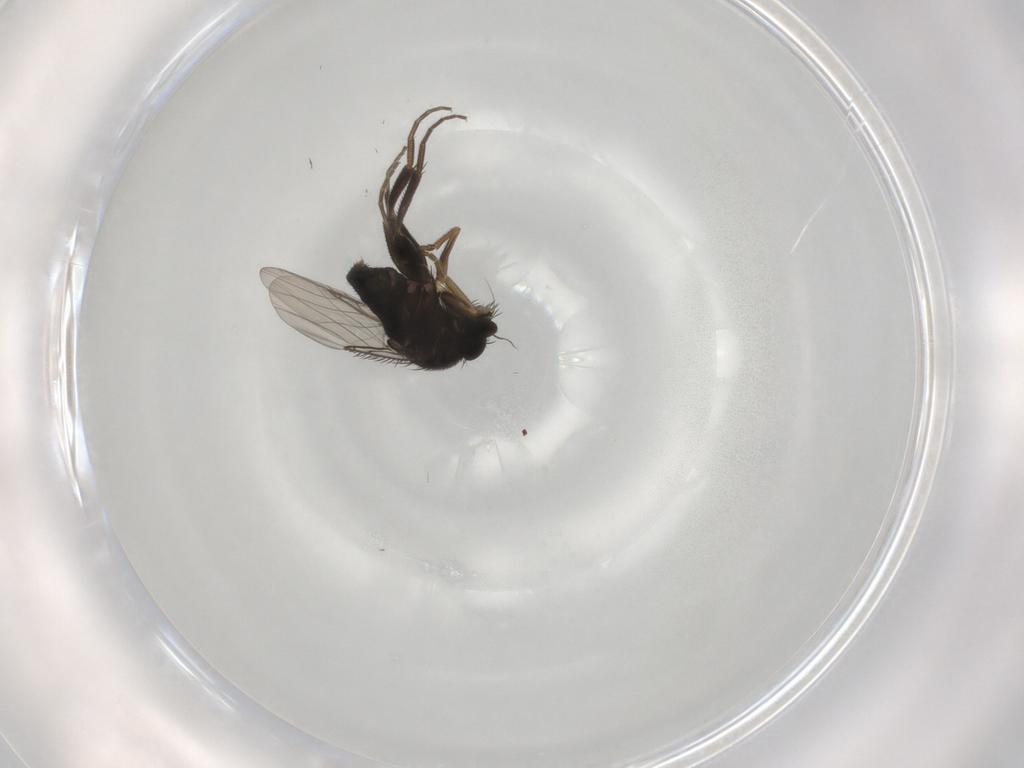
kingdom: Animalia
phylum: Arthropoda
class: Insecta
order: Diptera
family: Phoridae
